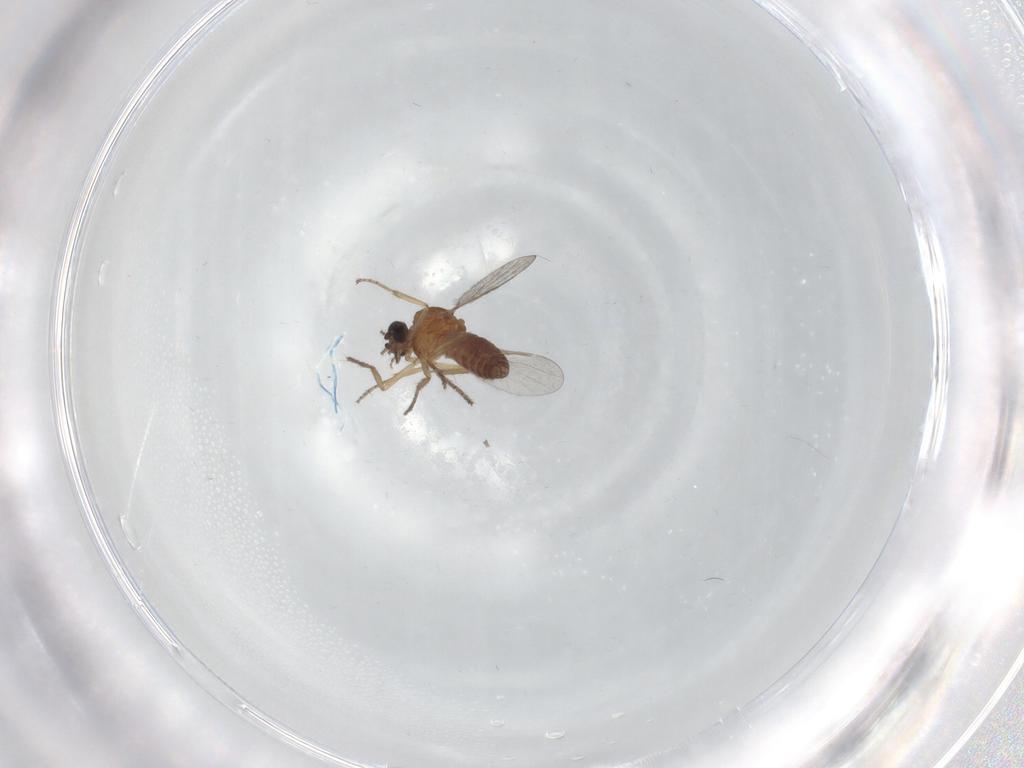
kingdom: Animalia
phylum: Arthropoda
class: Insecta
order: Diptera
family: Ceratopogonidae
